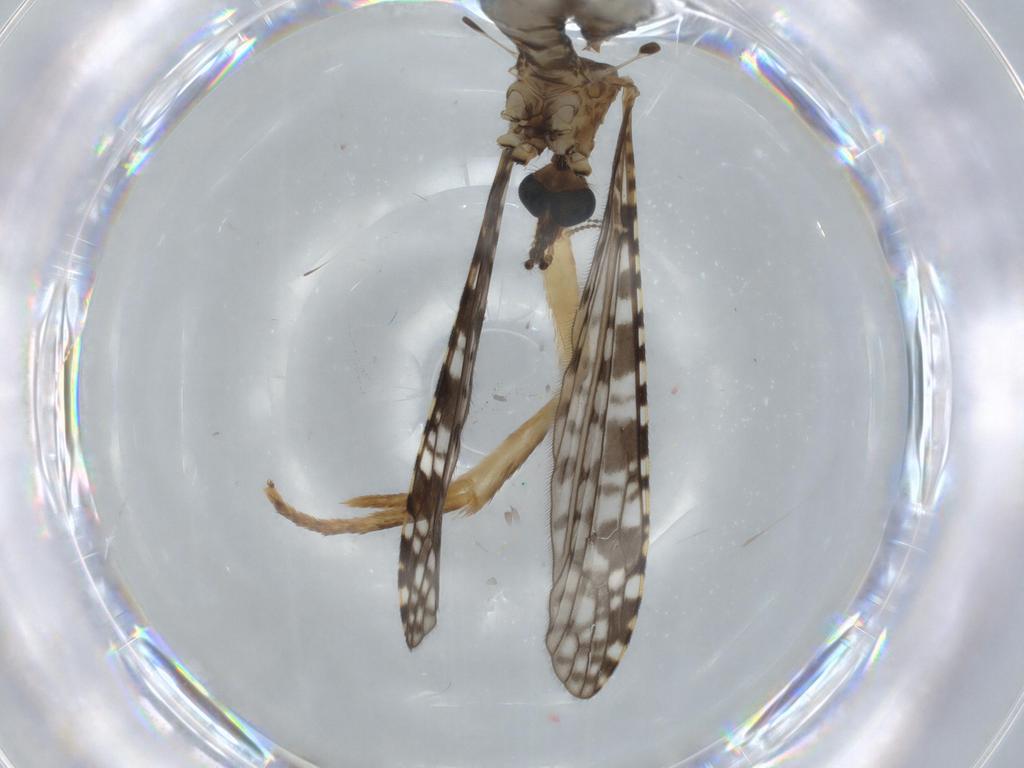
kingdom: Animalia
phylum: Arthropoda
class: Insecta
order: Diptera
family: Limoniidae
